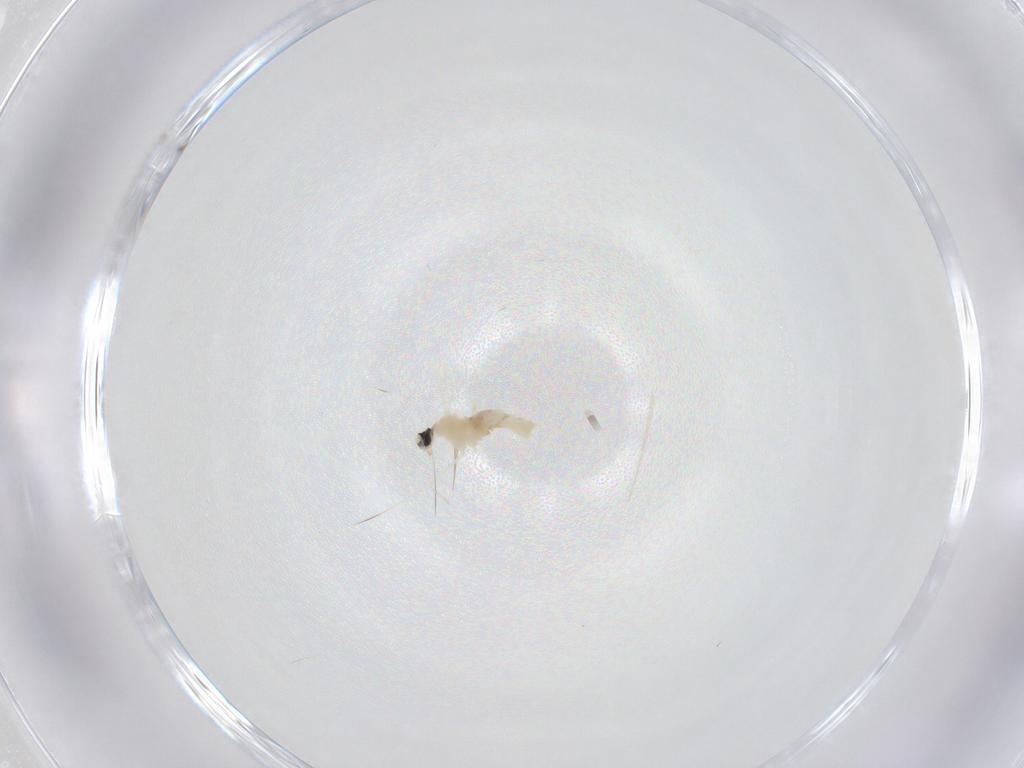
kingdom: Animalia
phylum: Arthropoda
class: Insecta
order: Diptera
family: Cecidomyiidae
